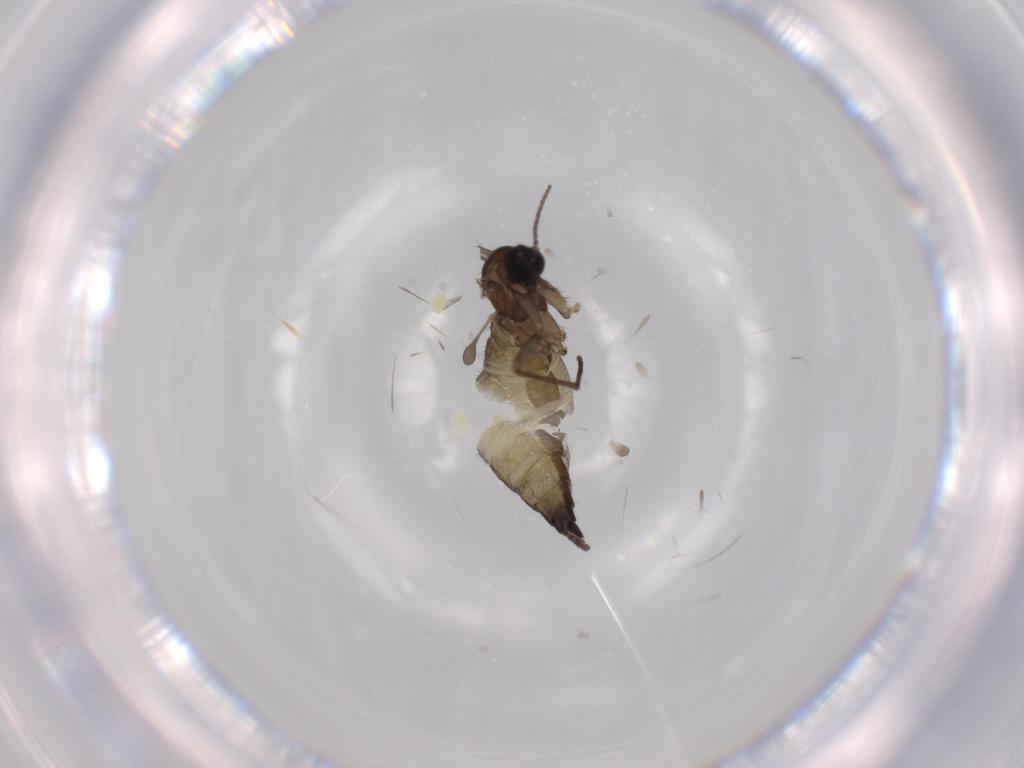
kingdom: Animalia
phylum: Arthropoda
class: Insecta
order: Diptera
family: Sciaridae
